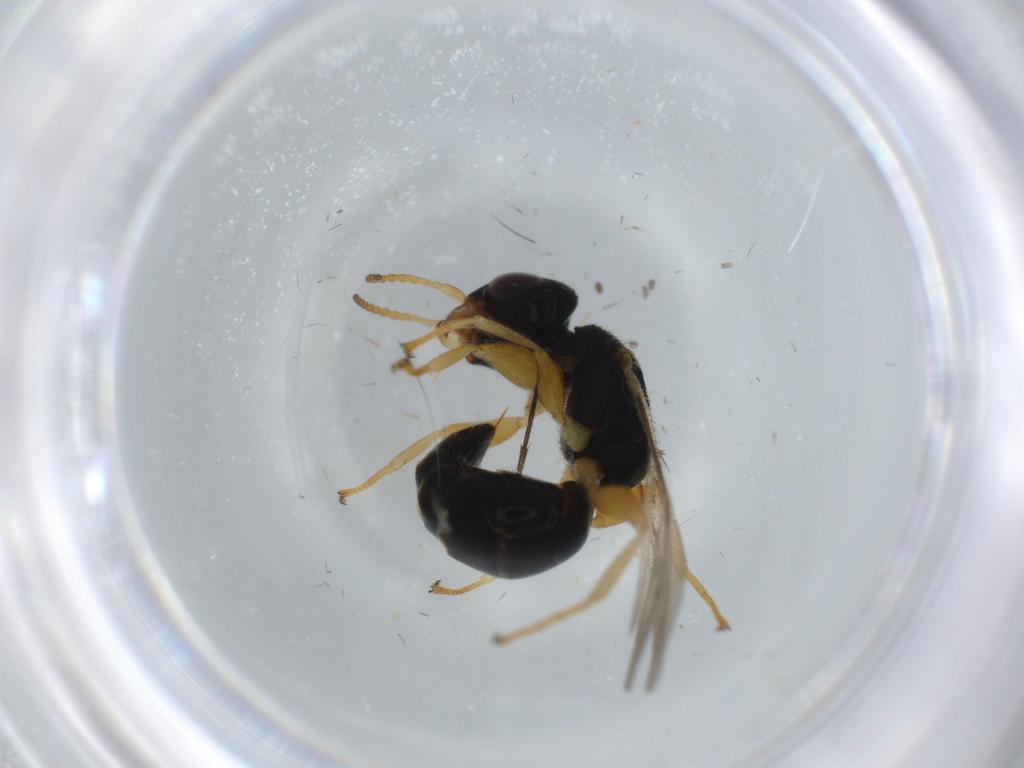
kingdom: Animalia
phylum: Arthropoda
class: Insecta
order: Hymenoptera
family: Bethylidae
